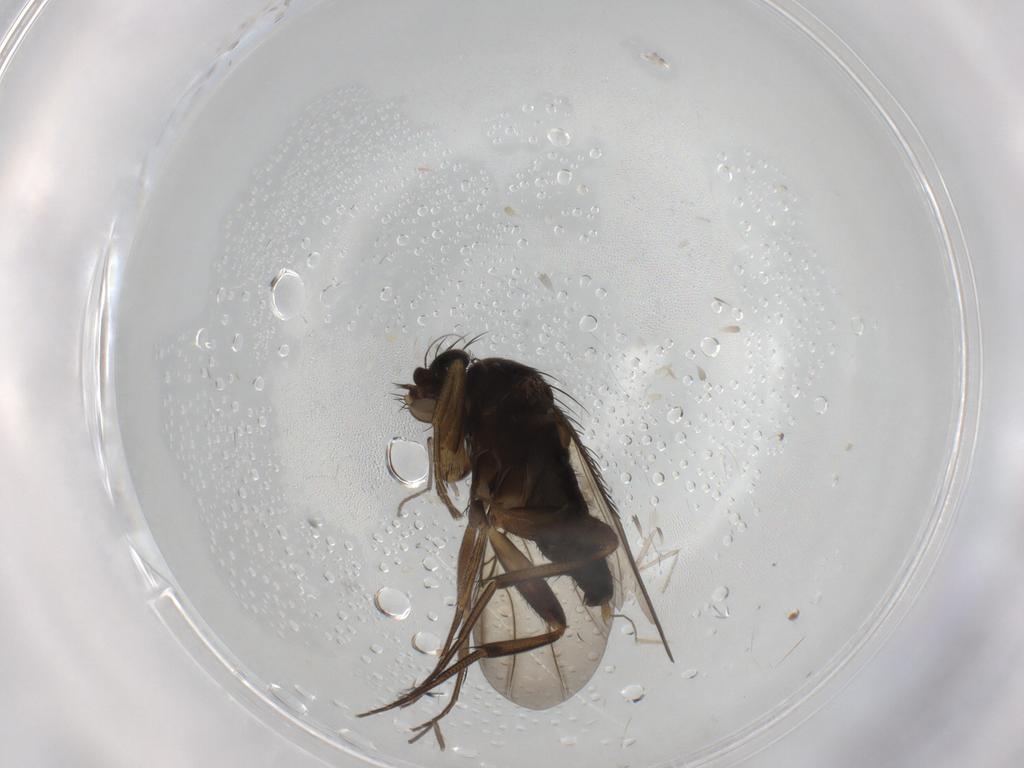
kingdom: Animalia
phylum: Arthropoda
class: Insecta
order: Diptera
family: Phoridae
